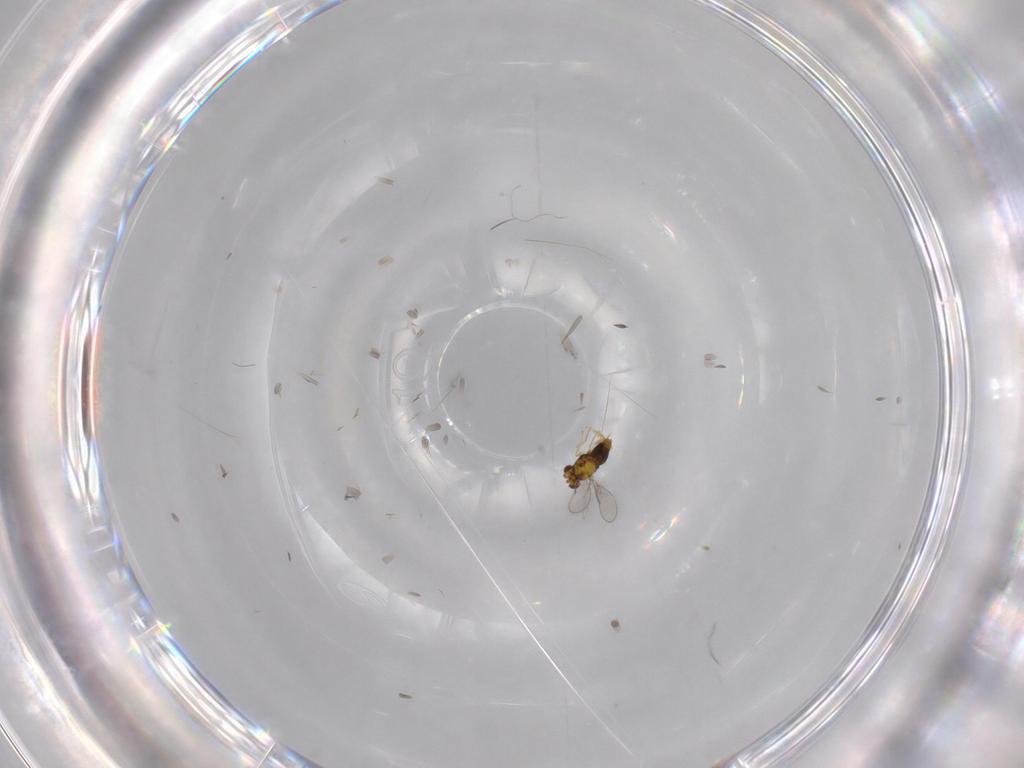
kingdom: Animalia
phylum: Arthropoda
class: Insecta
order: Hymenoptera
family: Aphelinidae
